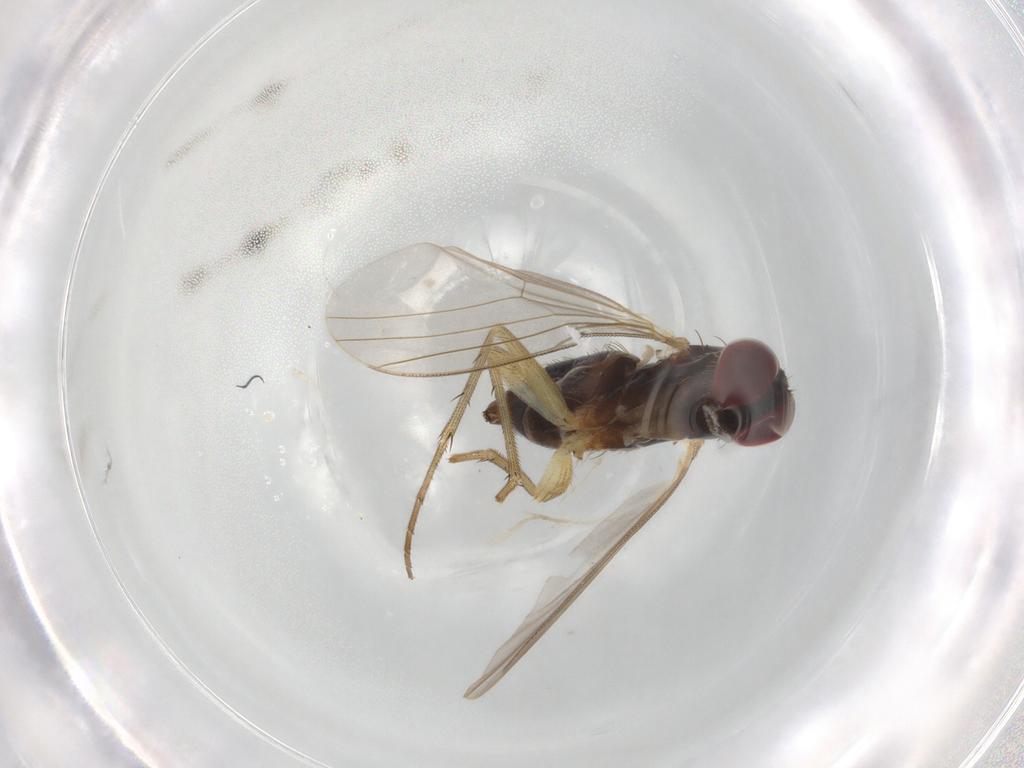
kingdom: Animalia
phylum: Arthropoda
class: Insecta
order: Diptera
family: Dolichopodidae
